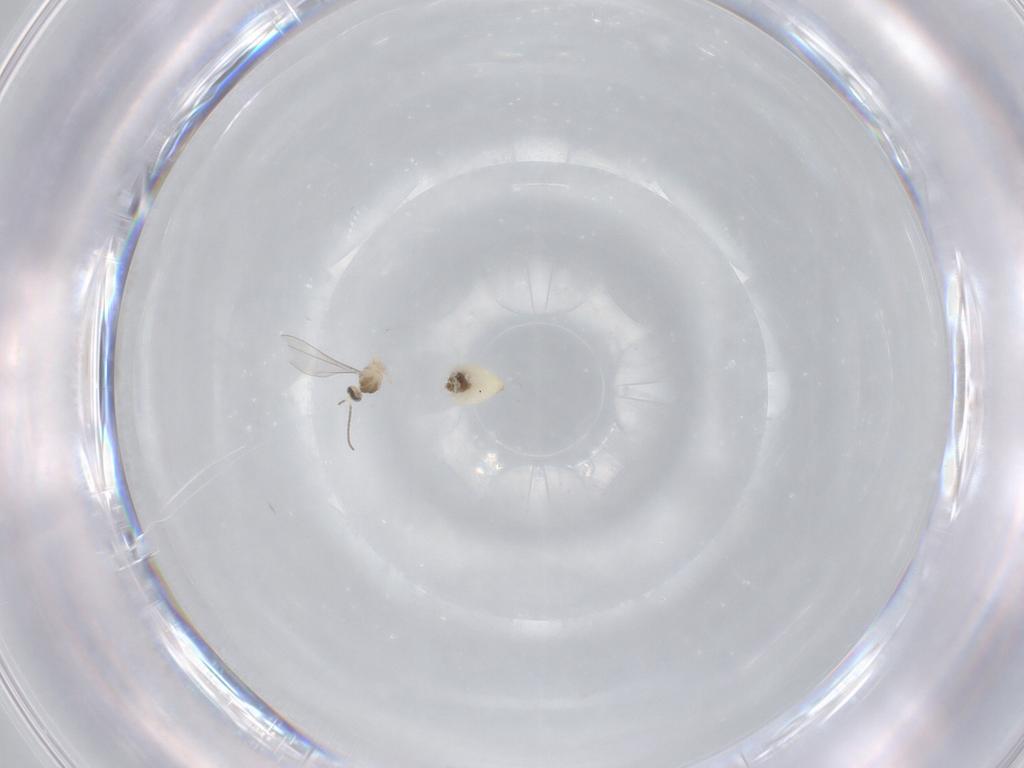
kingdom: Animalia
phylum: Arthropoda
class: Insecta
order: Diptera
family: Cecidomyiidae
